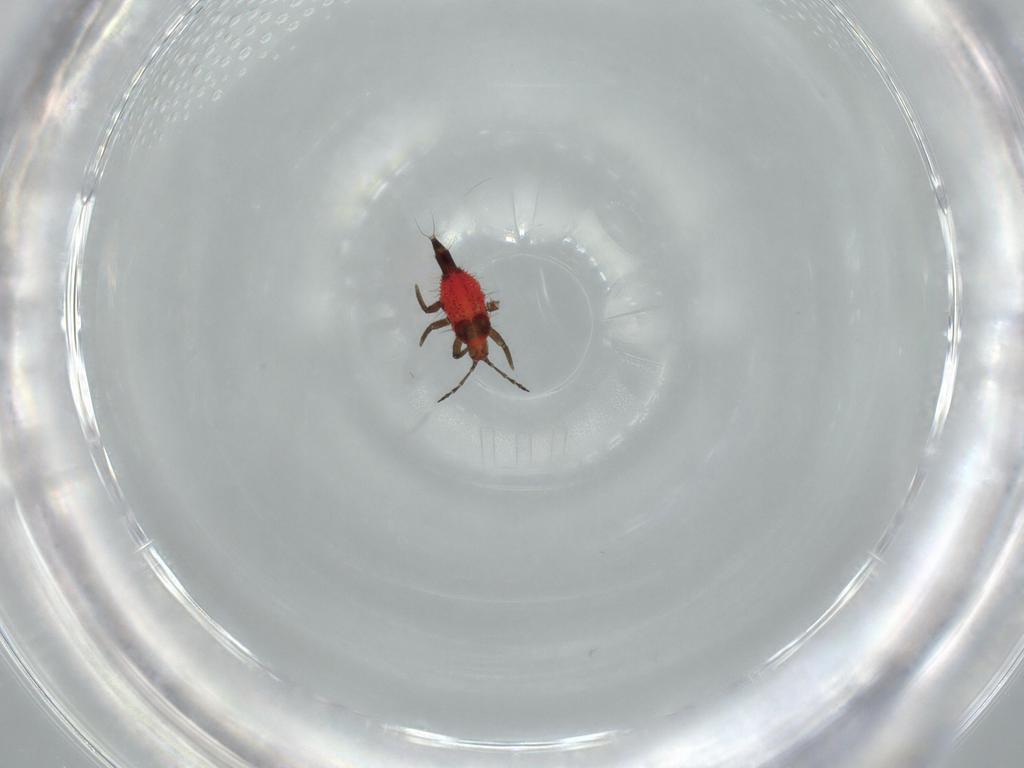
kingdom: Animalia
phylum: Arthropoda
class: Insecta
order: Thysanoptera
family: Phlaeothripidae
